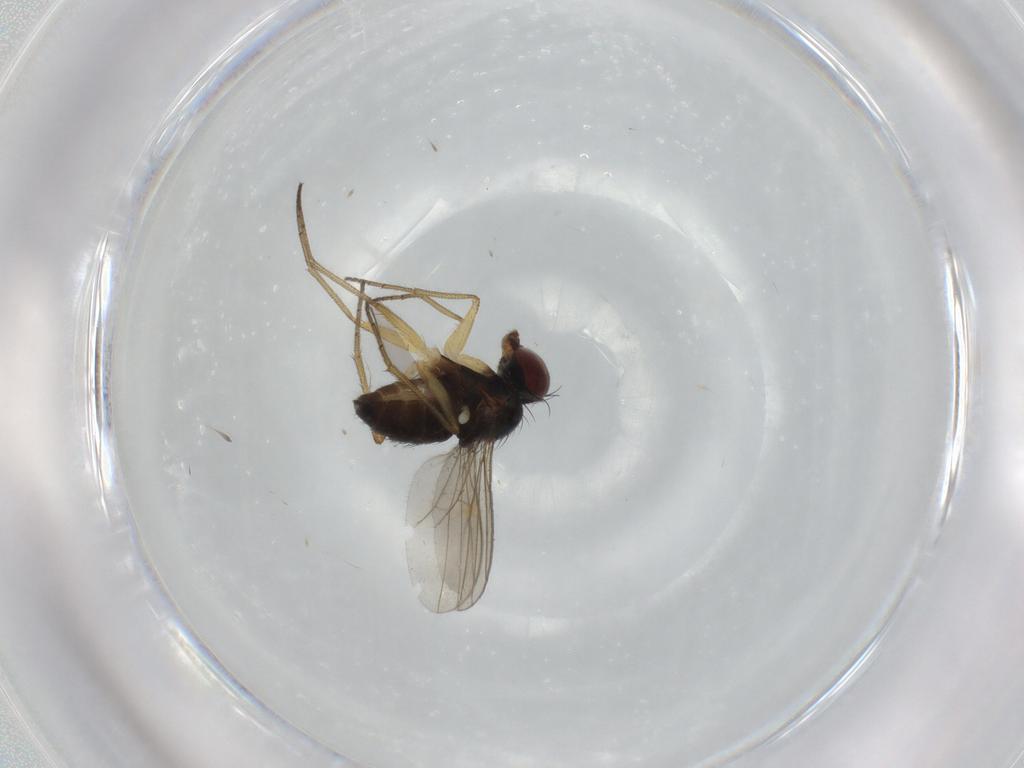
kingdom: Animalia
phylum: Arthropoda
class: Insecta
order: Diptera
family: Dolichopodidae
